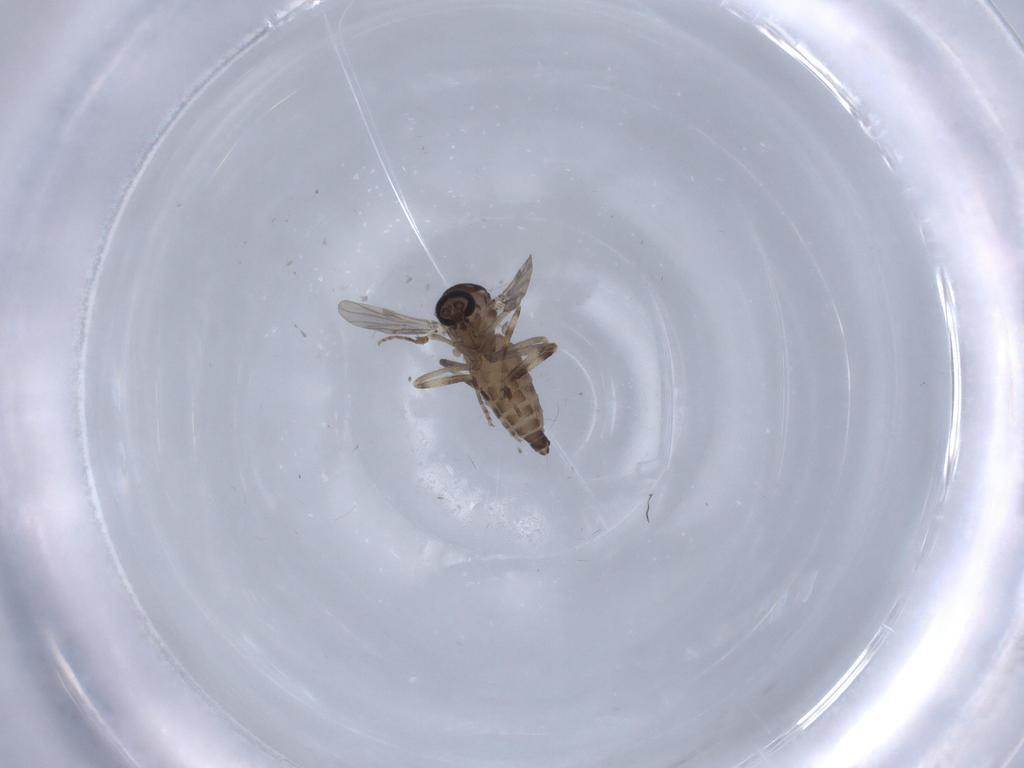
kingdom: Animalia
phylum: Arthropoda
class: Insecta
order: Diptera
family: Ceratopogonidae
